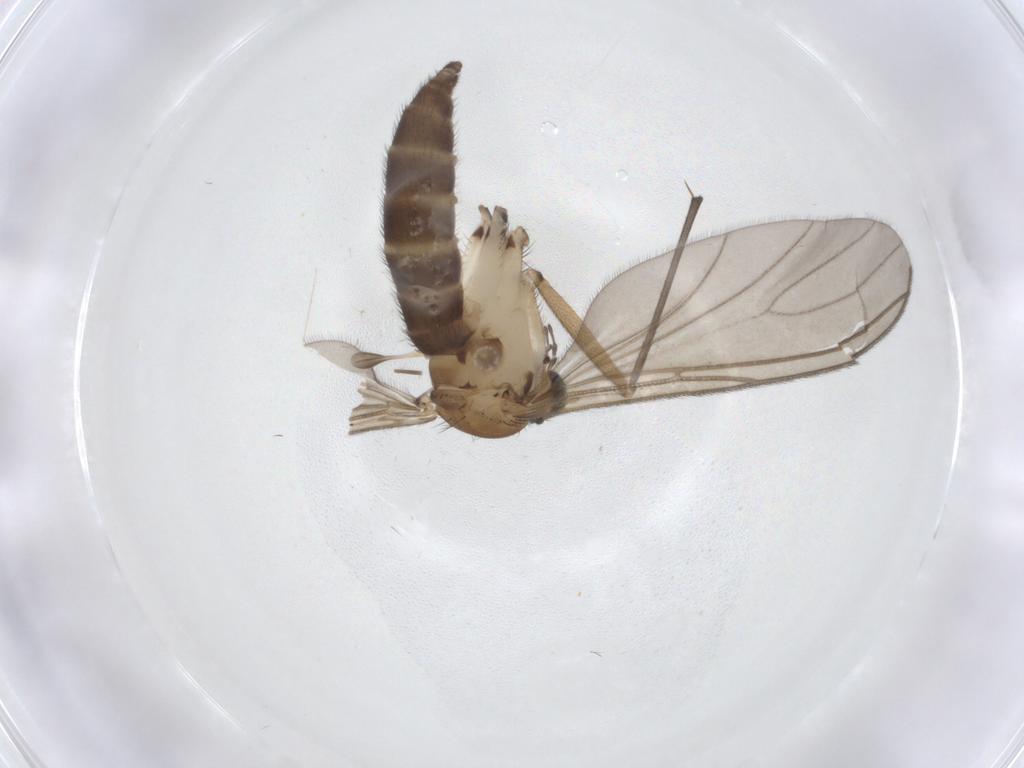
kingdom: Animalia
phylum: Arthropoda
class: Insecta
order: Diptera
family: Sciaridae
